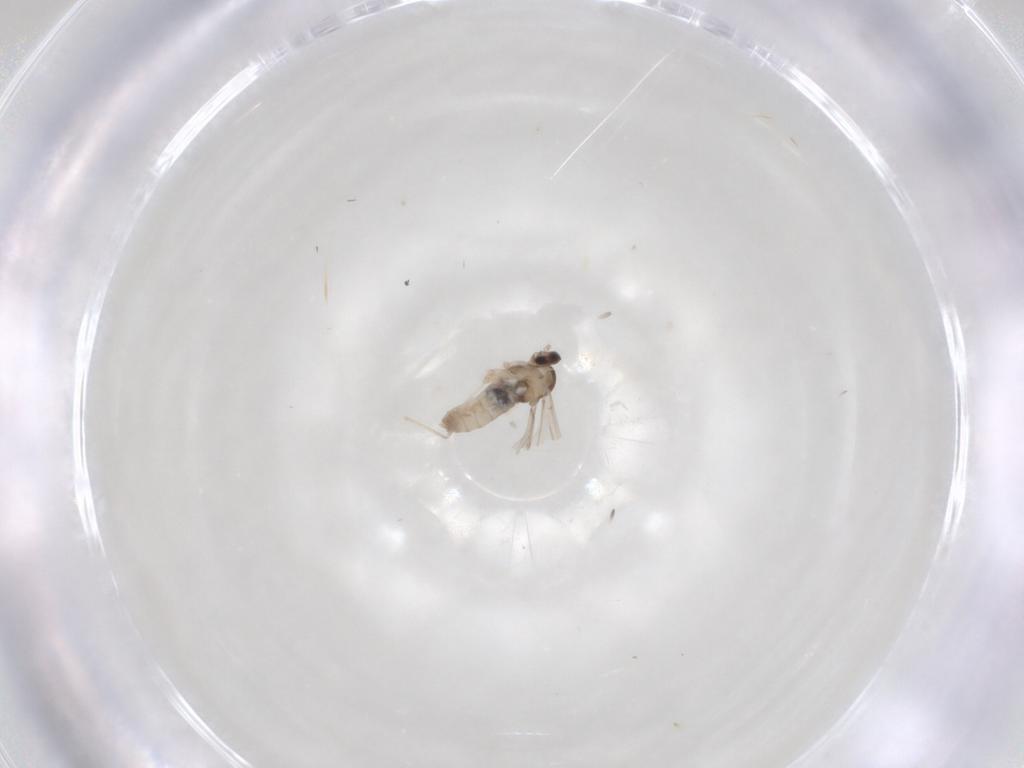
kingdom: Animalia
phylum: Arthropoda
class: Insecta
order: Diptera
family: Cecidomyiidae
